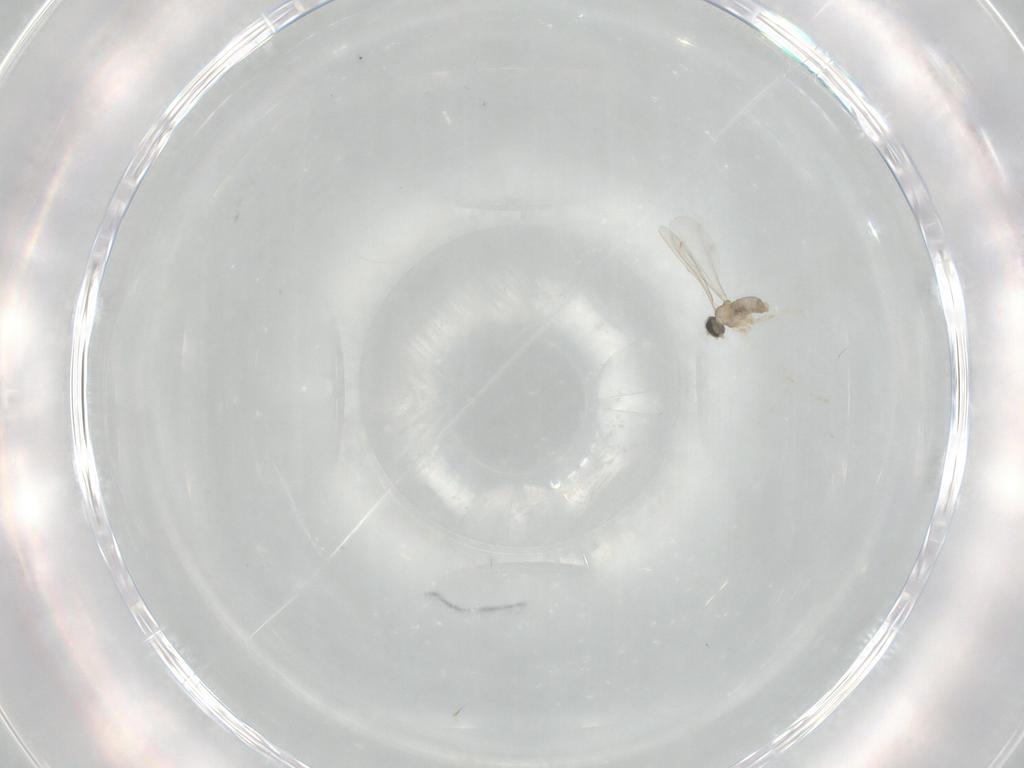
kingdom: Animalia
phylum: Arthropoda
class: Insecta
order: Diptera
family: Cecidomyiidae
